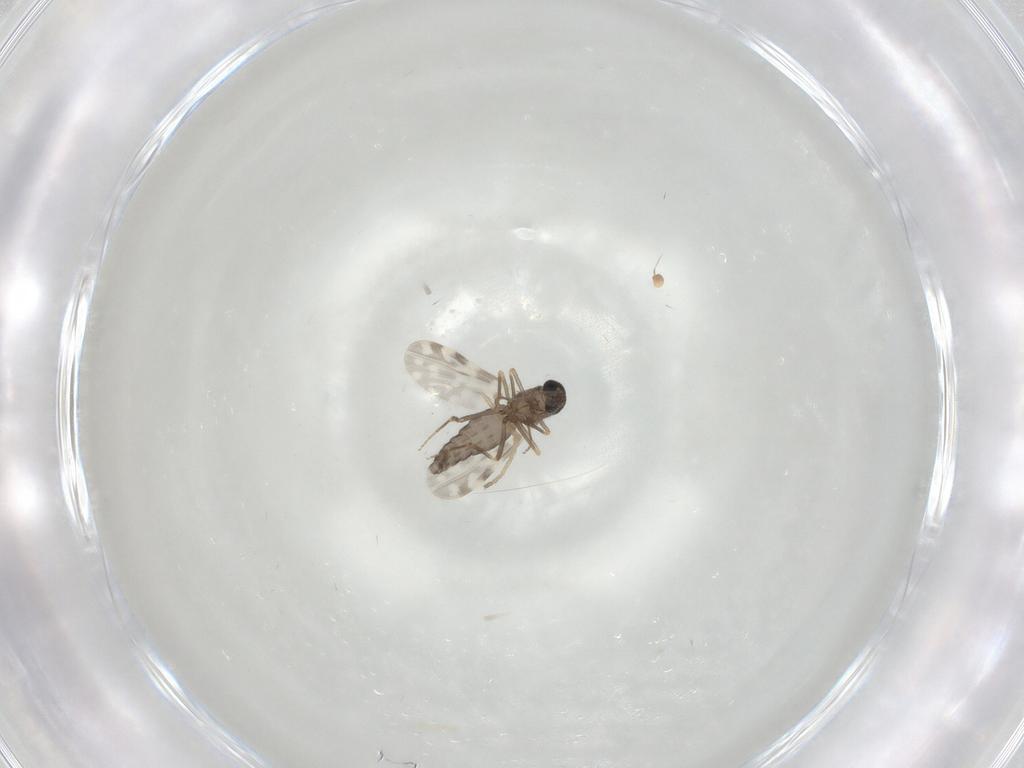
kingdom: Animalia
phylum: Arthropoda
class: Insecta
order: Diptera
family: Ceratopogonidae
